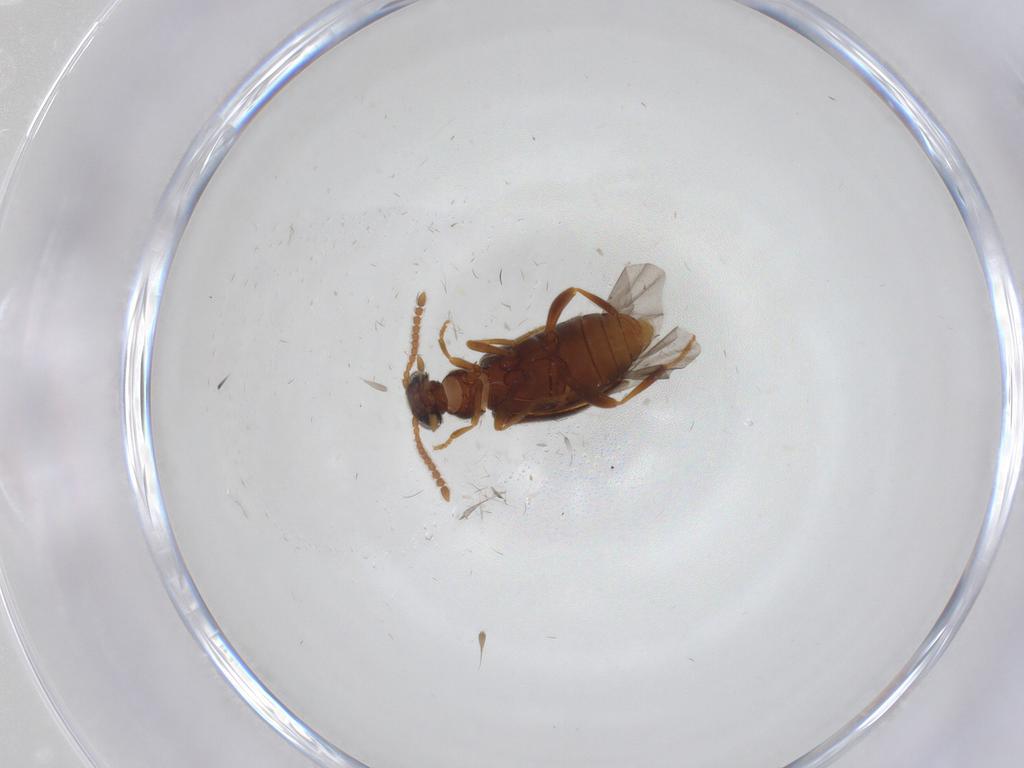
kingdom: Animalia
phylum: Arthropoda
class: Insecta
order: Coleoptera
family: Aderidae
